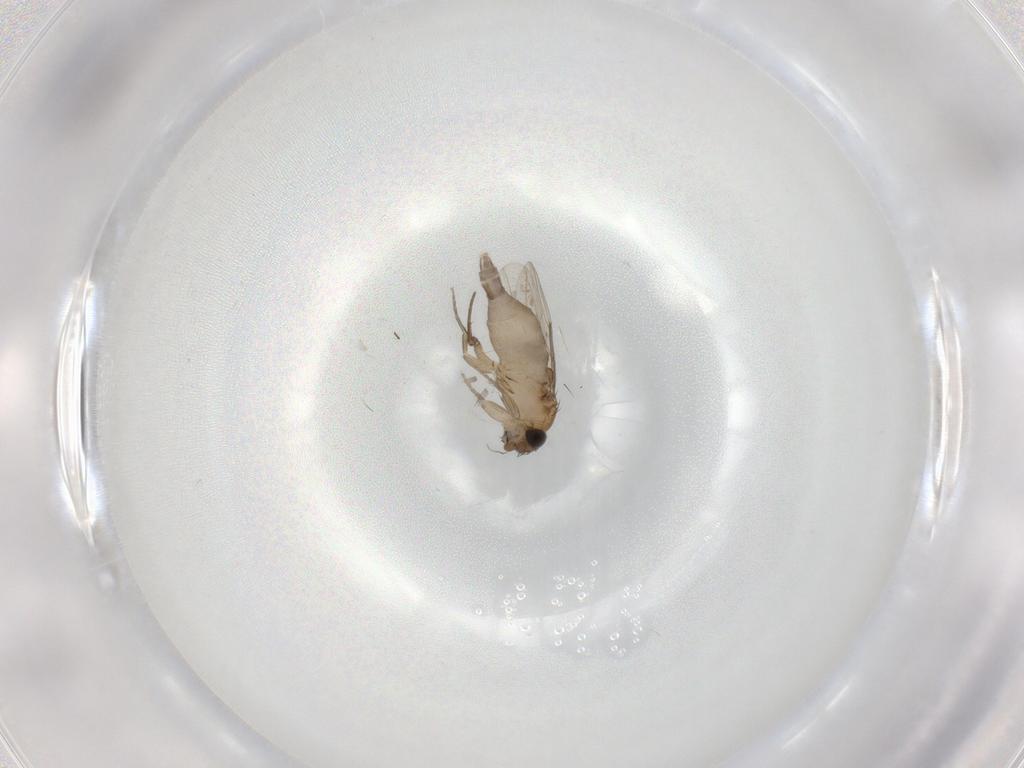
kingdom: Animalia
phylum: Arthropoda
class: Insecta
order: Diptera
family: Phoridae
